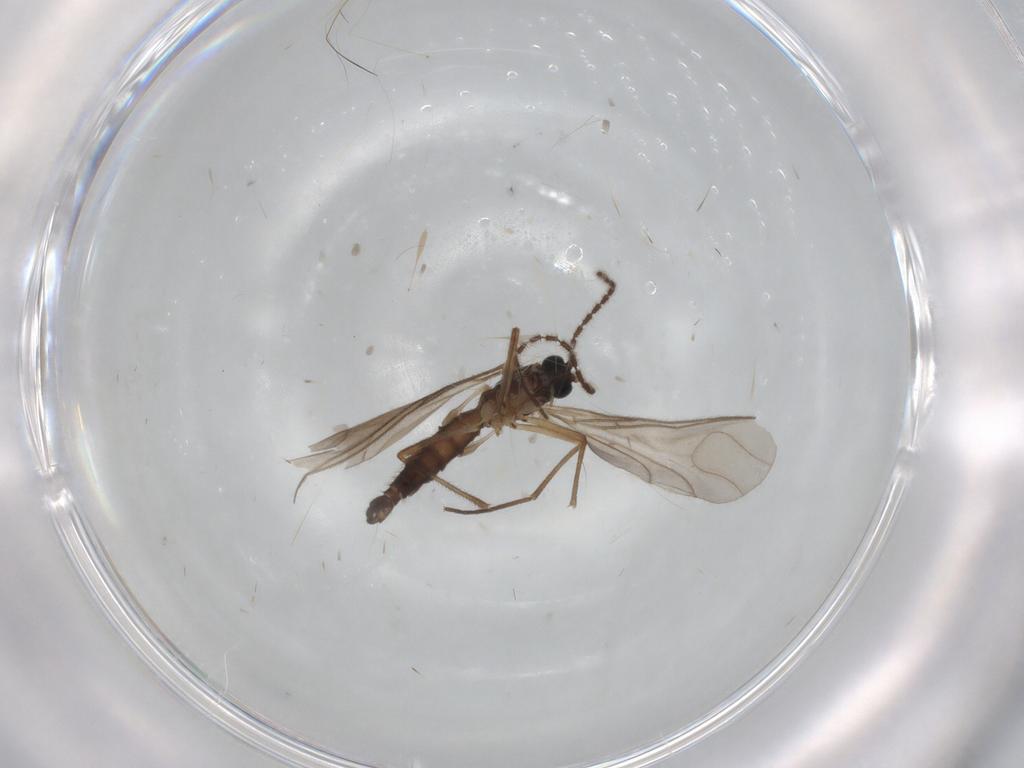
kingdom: Animalia
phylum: Arthropoda
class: Insecta
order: Diptera
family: Sciaridae
